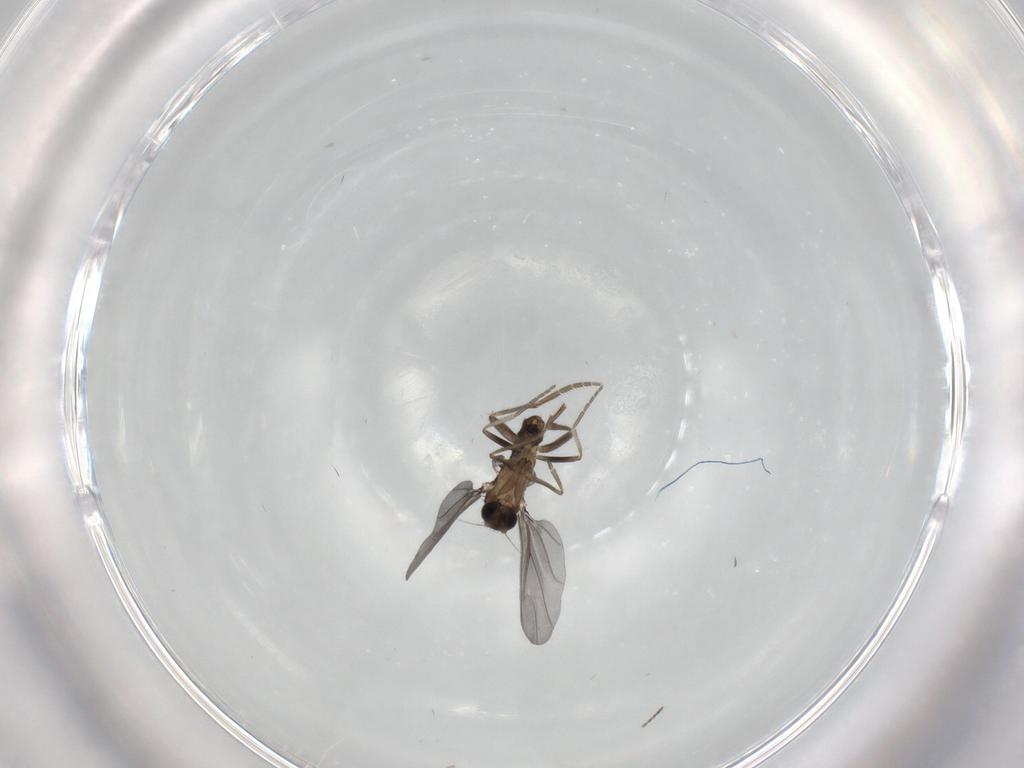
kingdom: Animalia
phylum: Arthropoda
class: Insecta
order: Diptera
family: Phoridae
